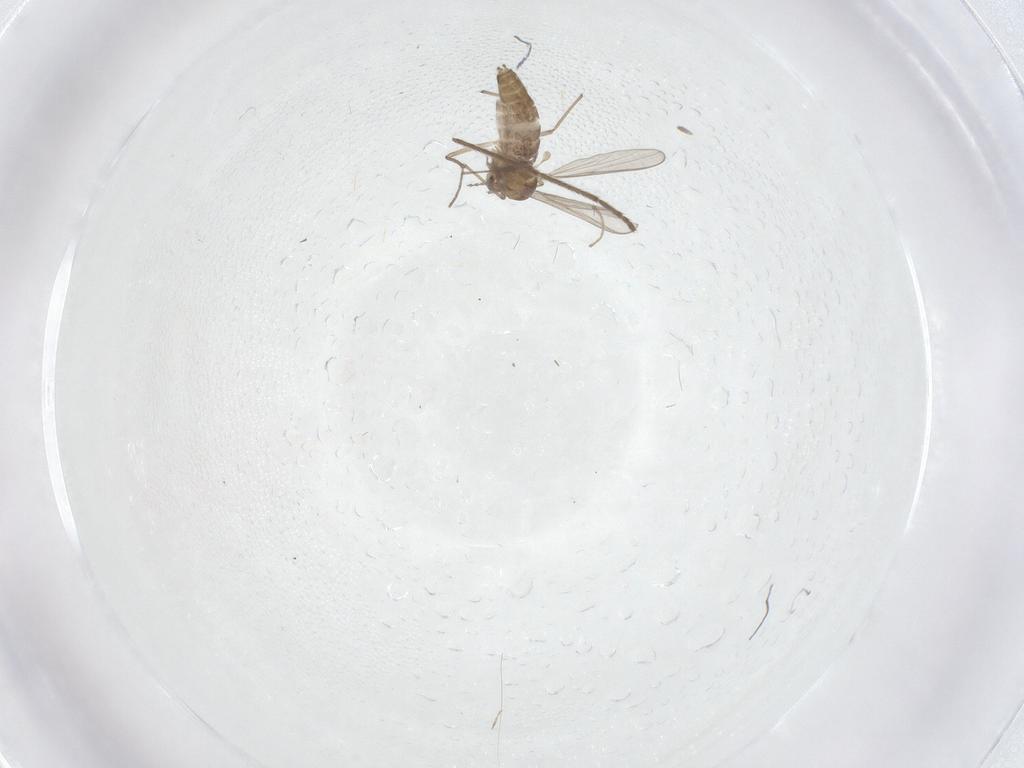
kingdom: Animalia
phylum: Arthropoda
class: Insecta
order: Diptera
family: Chironomidae
